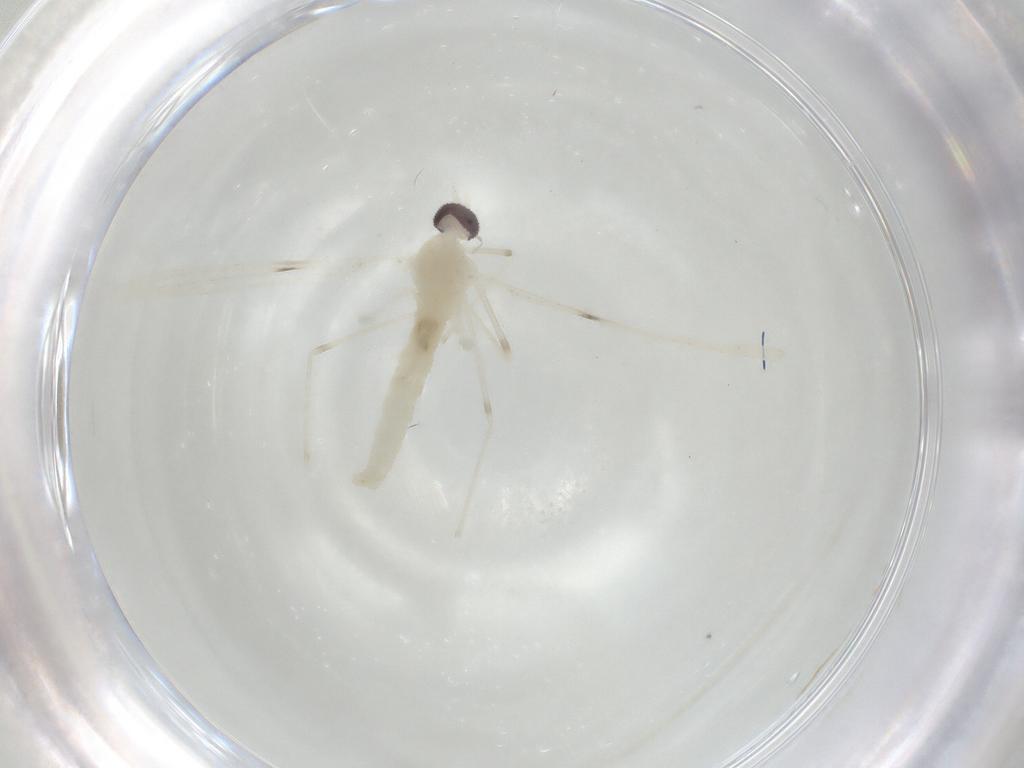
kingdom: Animalia
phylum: Arthropoda
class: Insecta
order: Diptera
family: Cecidomyiidae
